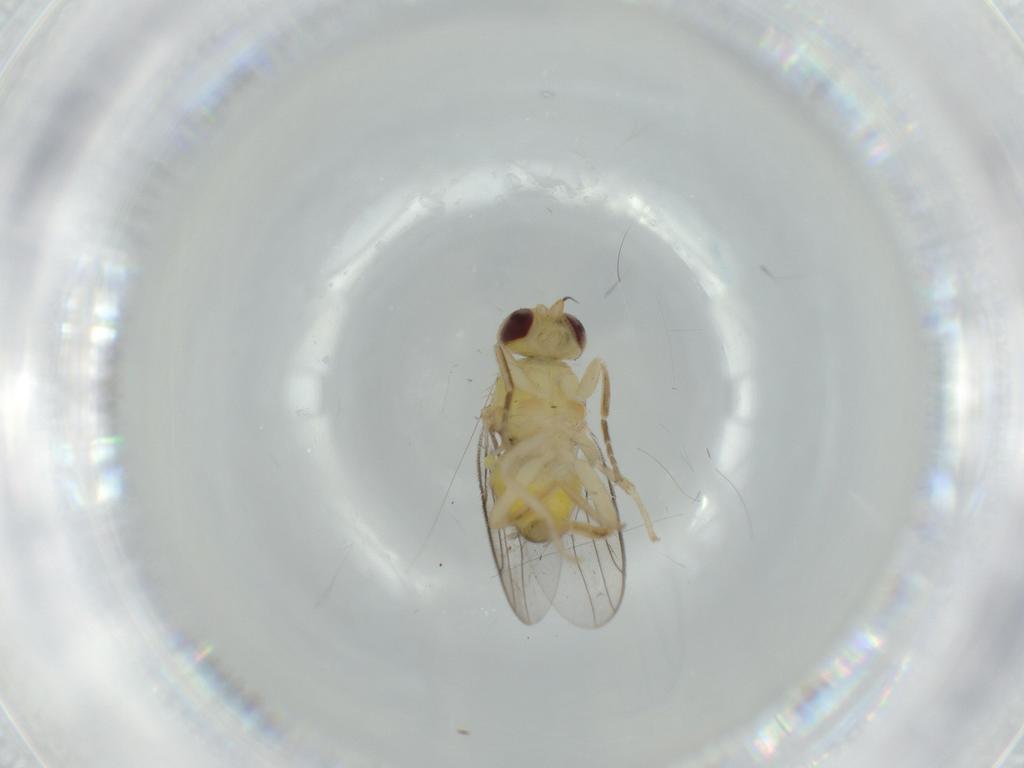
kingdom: Animalia
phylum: Arthropoda
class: Insecta
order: Diptera
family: Chloropidae
